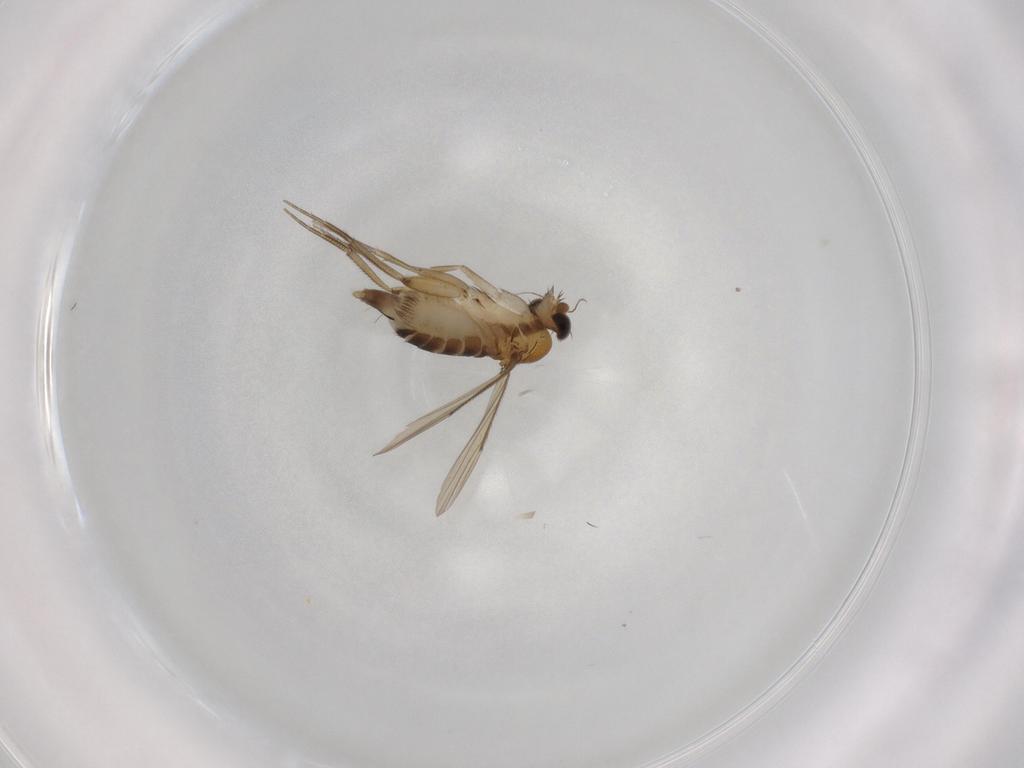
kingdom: Animalia
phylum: Arthropoda
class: Insecta
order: Diptera
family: Phoridae
